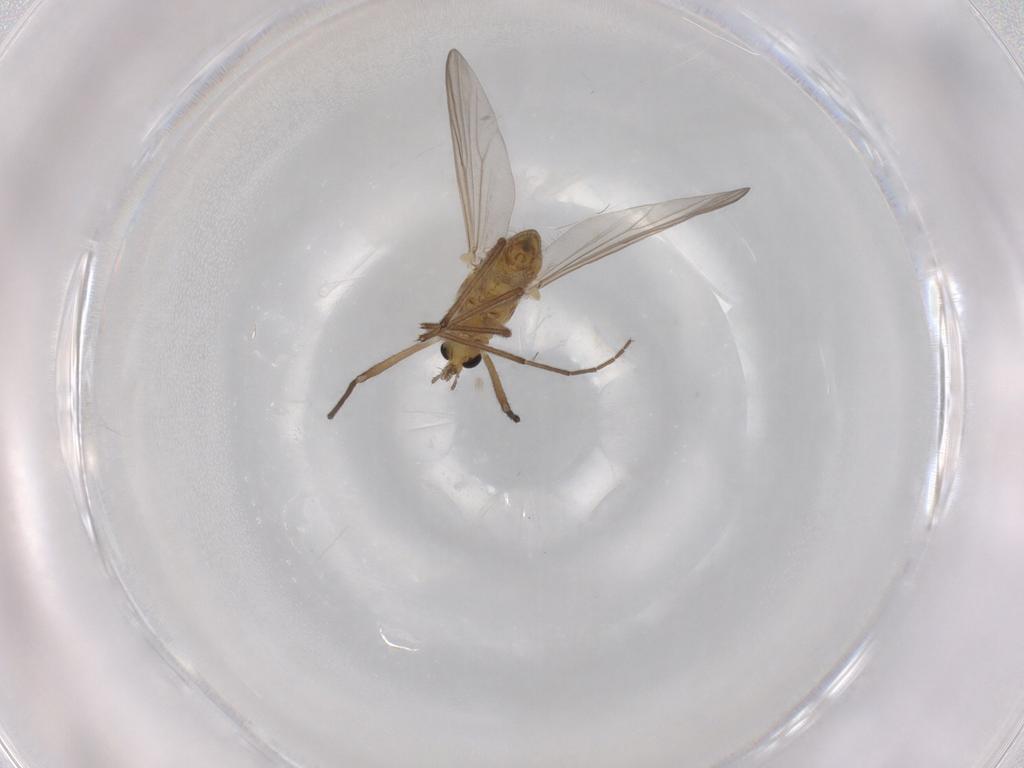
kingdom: Animalia
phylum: Arthropoda
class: Insecta
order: Diptera
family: Chironomidae
